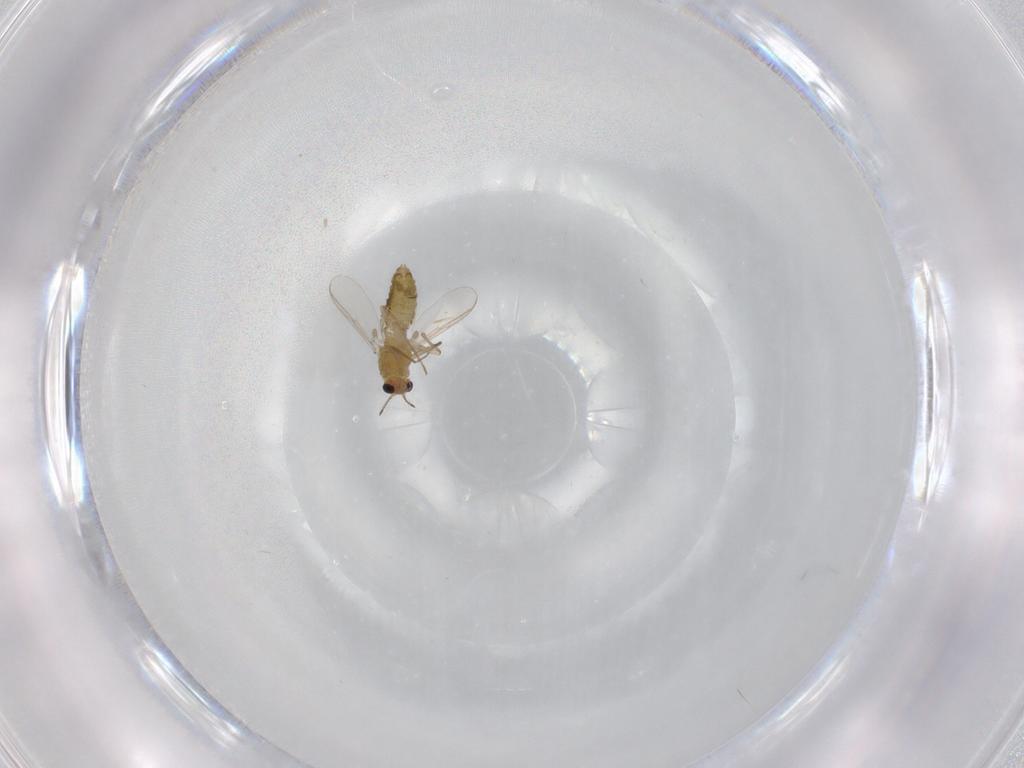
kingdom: Animalia
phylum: Arthropoda
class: Insecta
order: Diptera
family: Chironomidae
